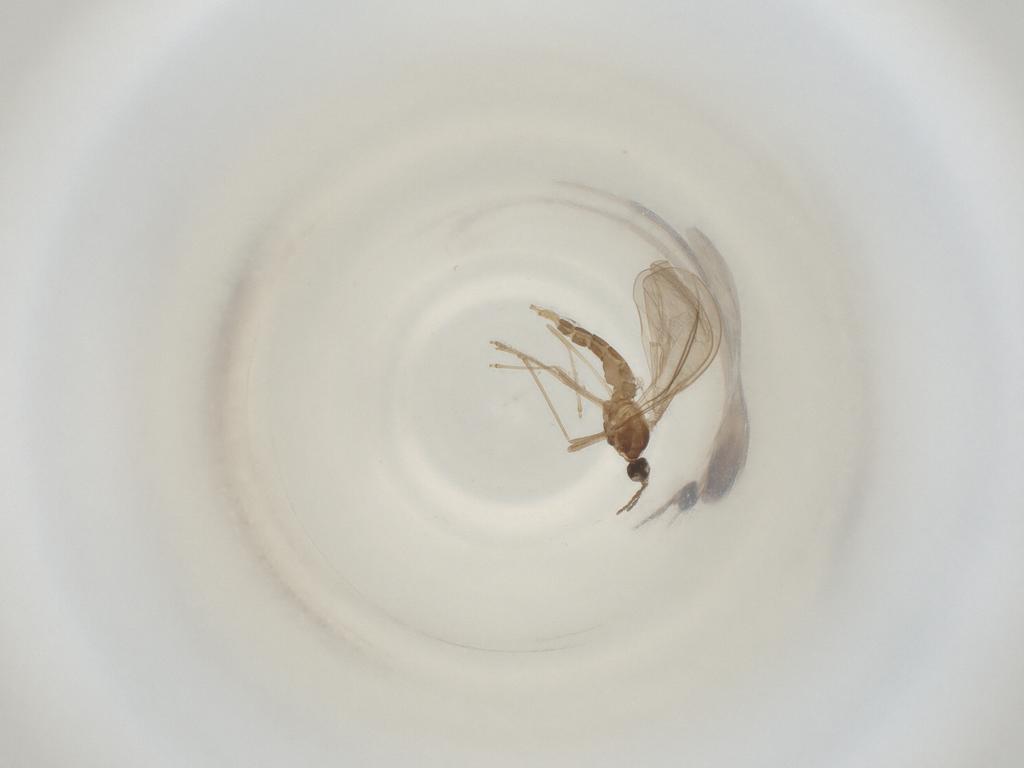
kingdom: Animalia
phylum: Arthropoda
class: Insecta
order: Diptera
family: Cecidomyiidae
